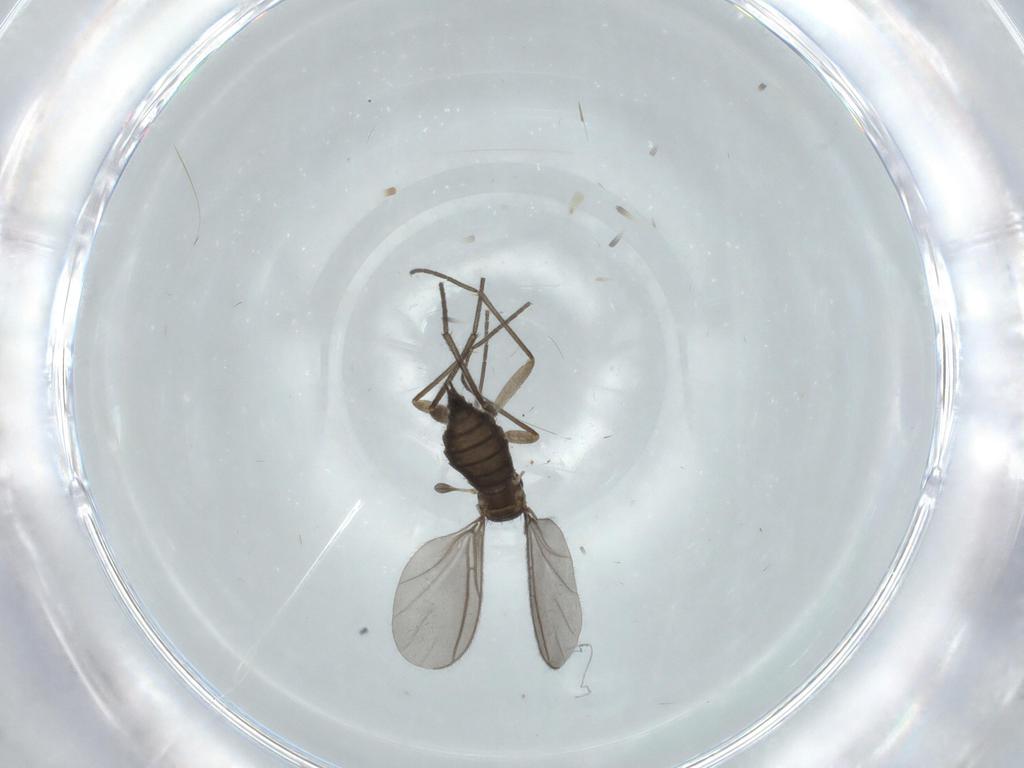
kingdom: Animalia
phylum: Arthropoda
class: Insecta
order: Diptera
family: Sciaridae
